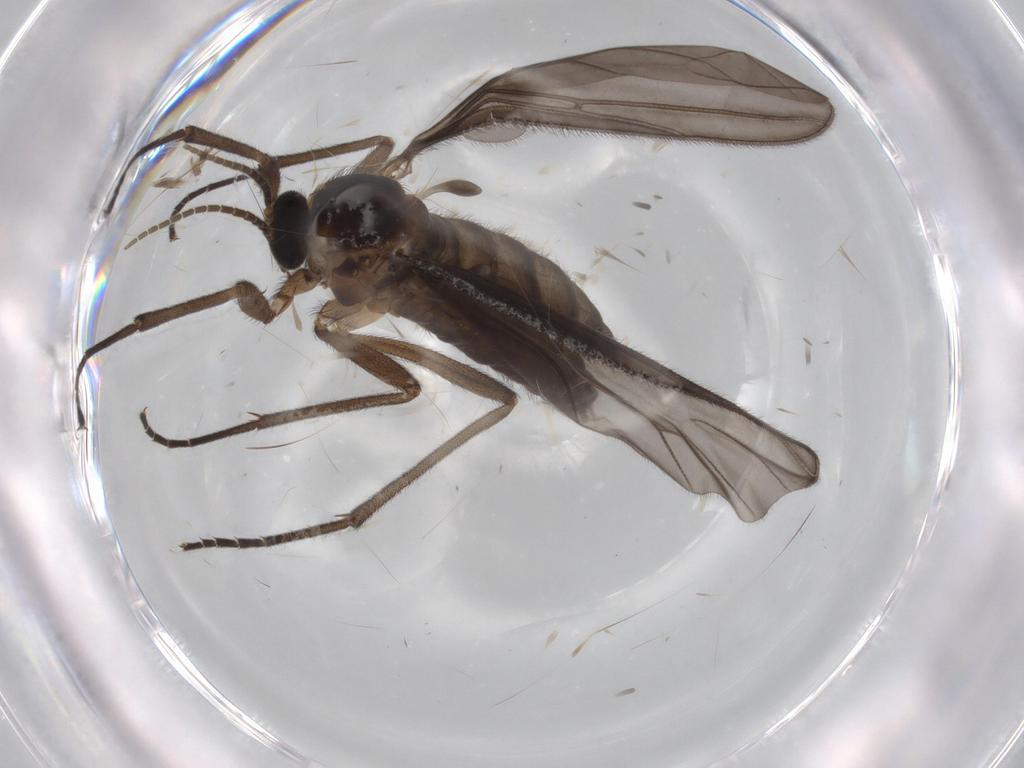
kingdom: Animalia
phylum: Arthropoda
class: Insecta
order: Diptera
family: Sciaridae
